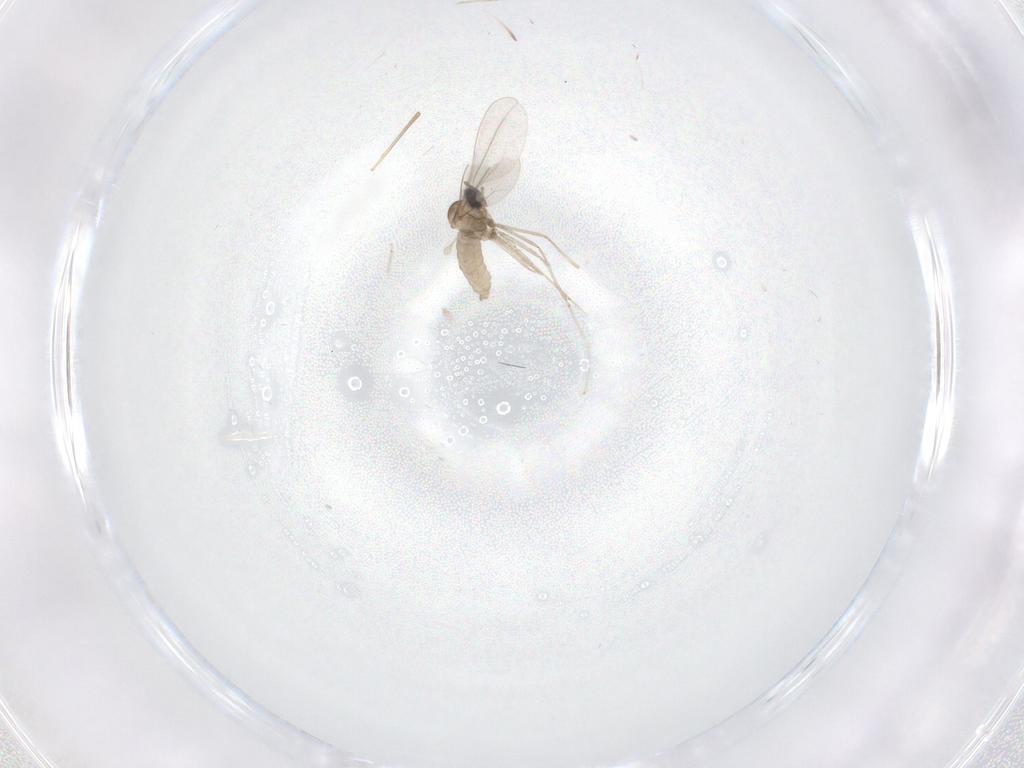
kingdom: Animalia
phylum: Arthropoda
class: Insecta
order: Diptera
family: Cecidomyiidae
